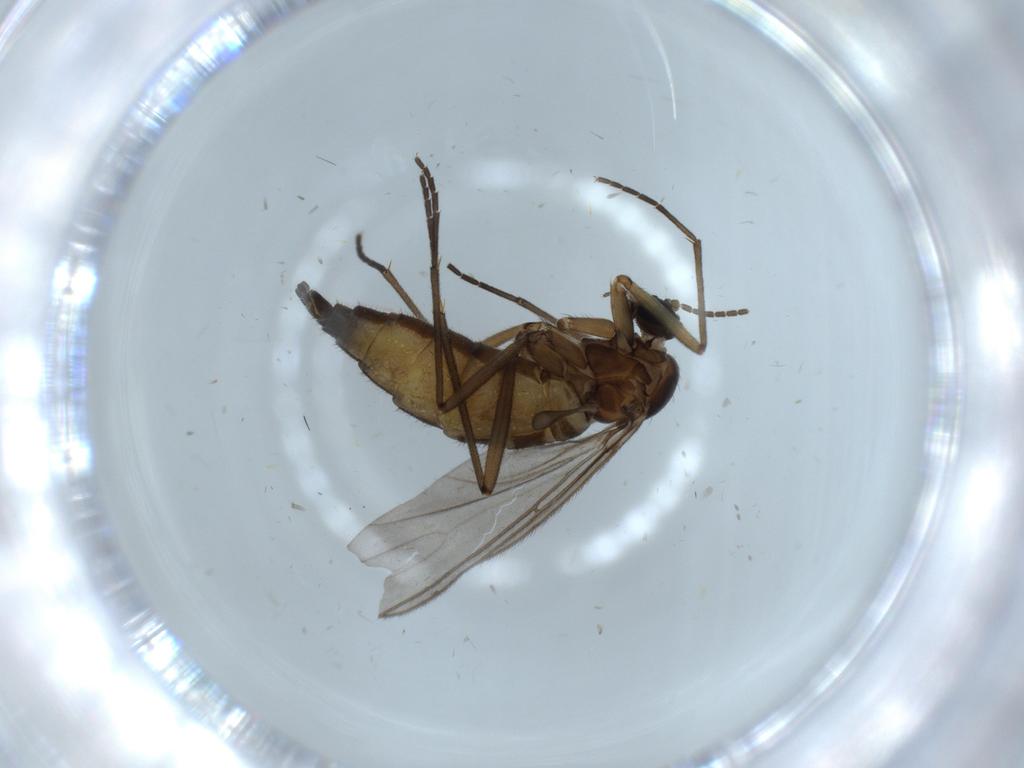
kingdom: Animalia
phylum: Arthropoda
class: Insecta
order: Diptera
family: Sciaridae
